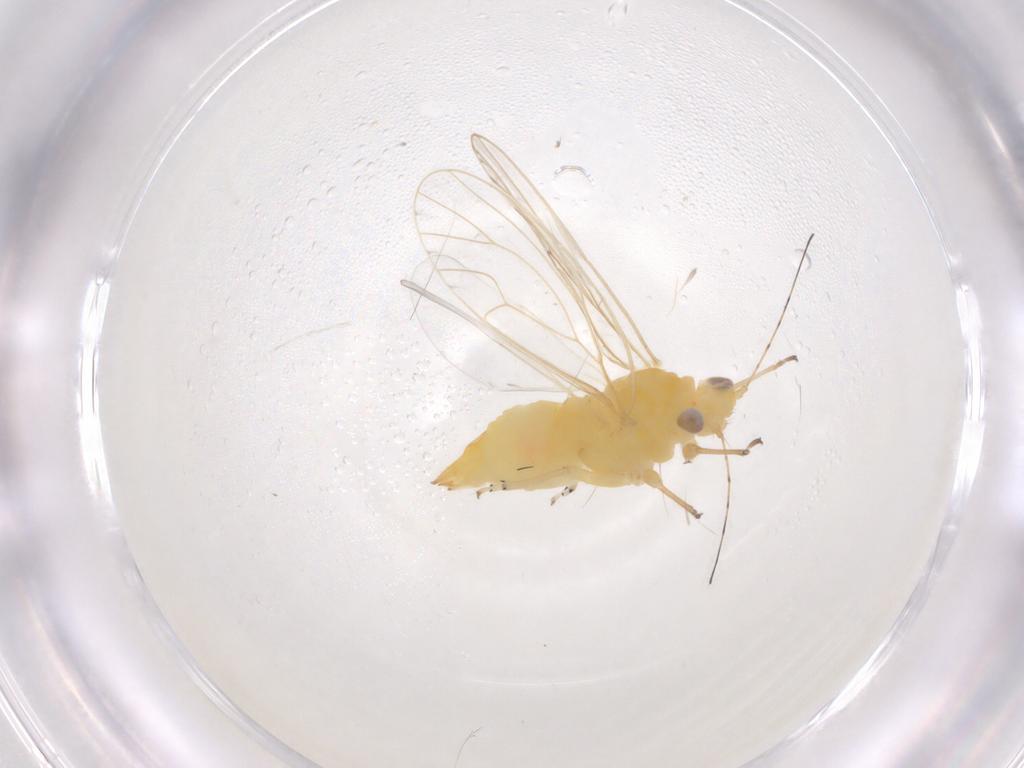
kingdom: Animalia
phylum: Arthropoda
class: Insecta
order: Hemiptera
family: Psyllidae
